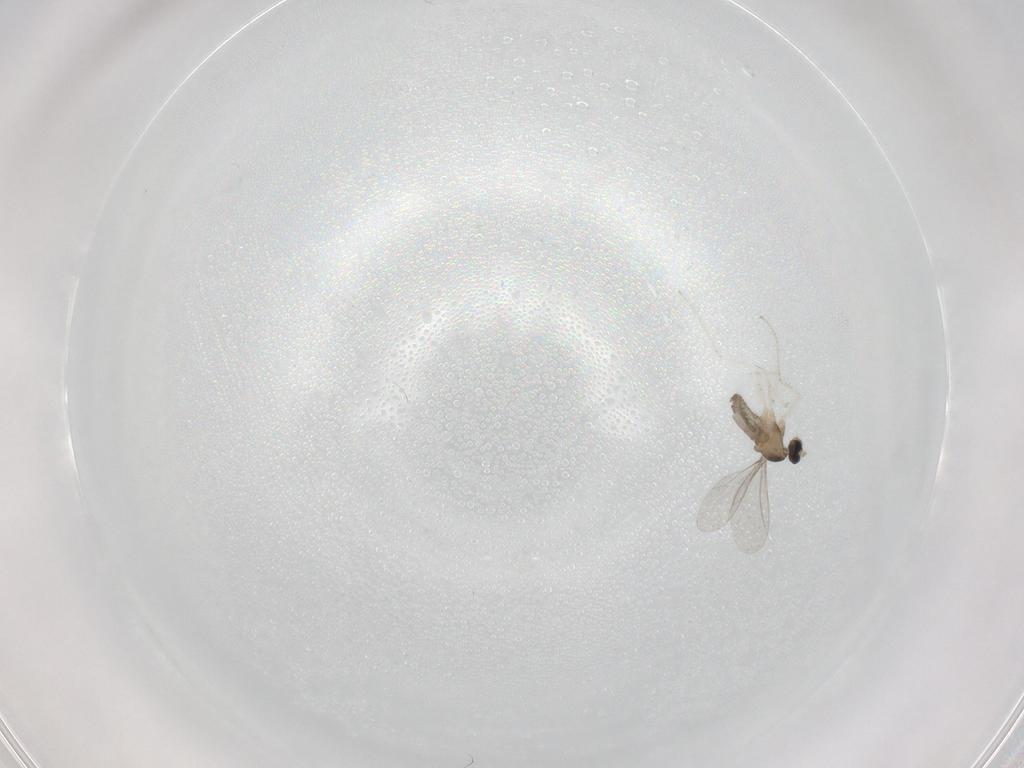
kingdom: Animalia
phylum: Arthropoda
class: Insecta
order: Diptera
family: Cecidomyiidae
